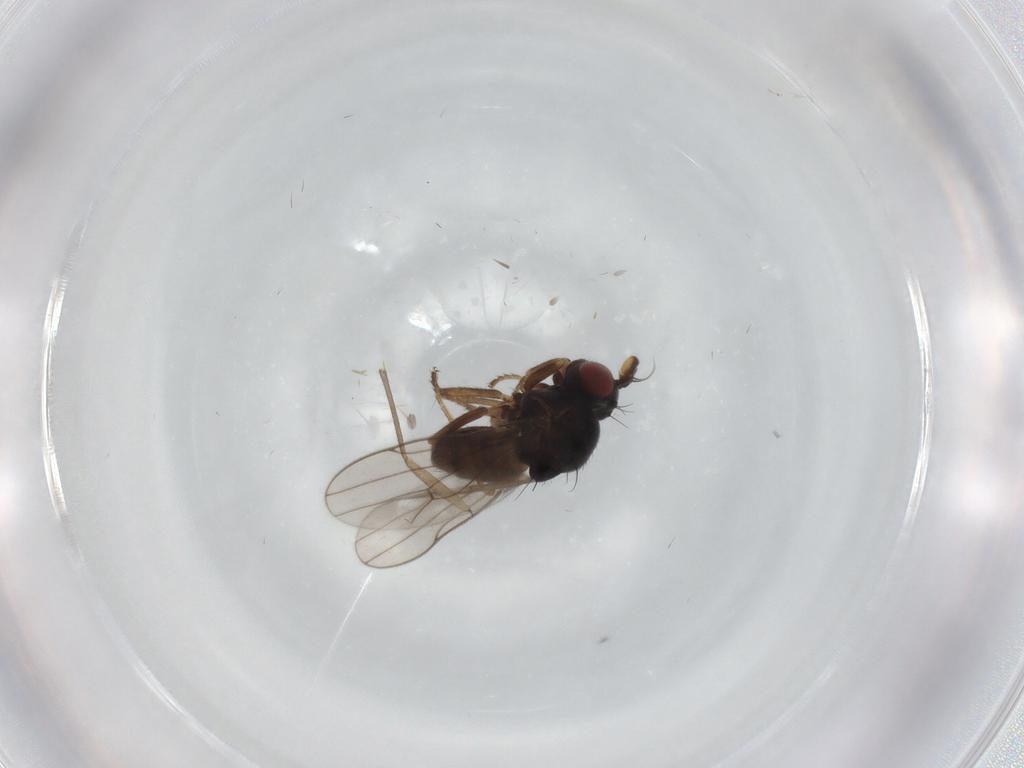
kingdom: Animalia
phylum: Arthropoda
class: Insecta
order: Diptera
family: Ephydridae
